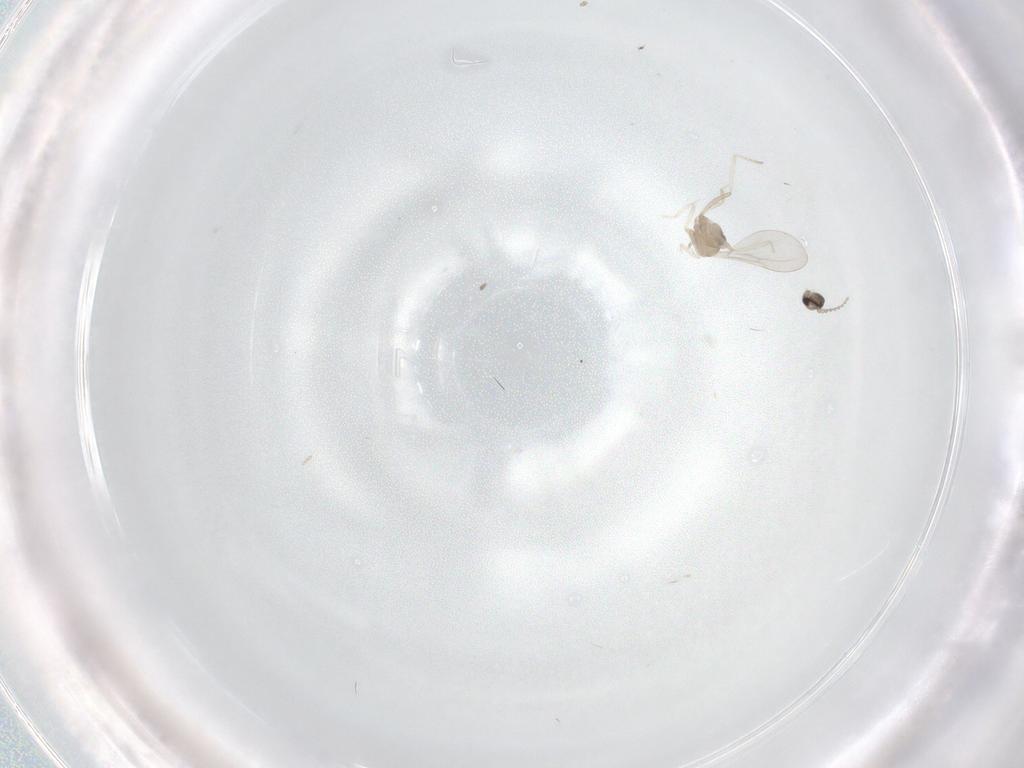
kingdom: Animalia
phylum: Arthropoda
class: Insecta
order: Diptera
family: Cecidomyiidae
